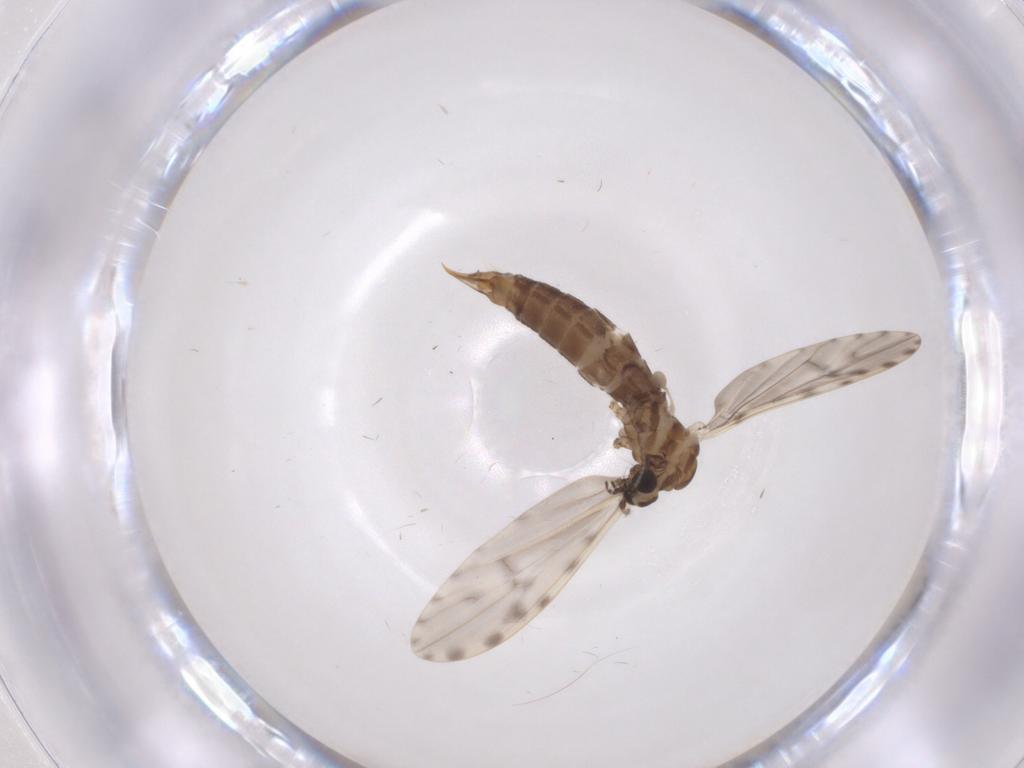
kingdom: Animalia
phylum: Arthropoda
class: Insecta
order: Diptera
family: Limoniidae
